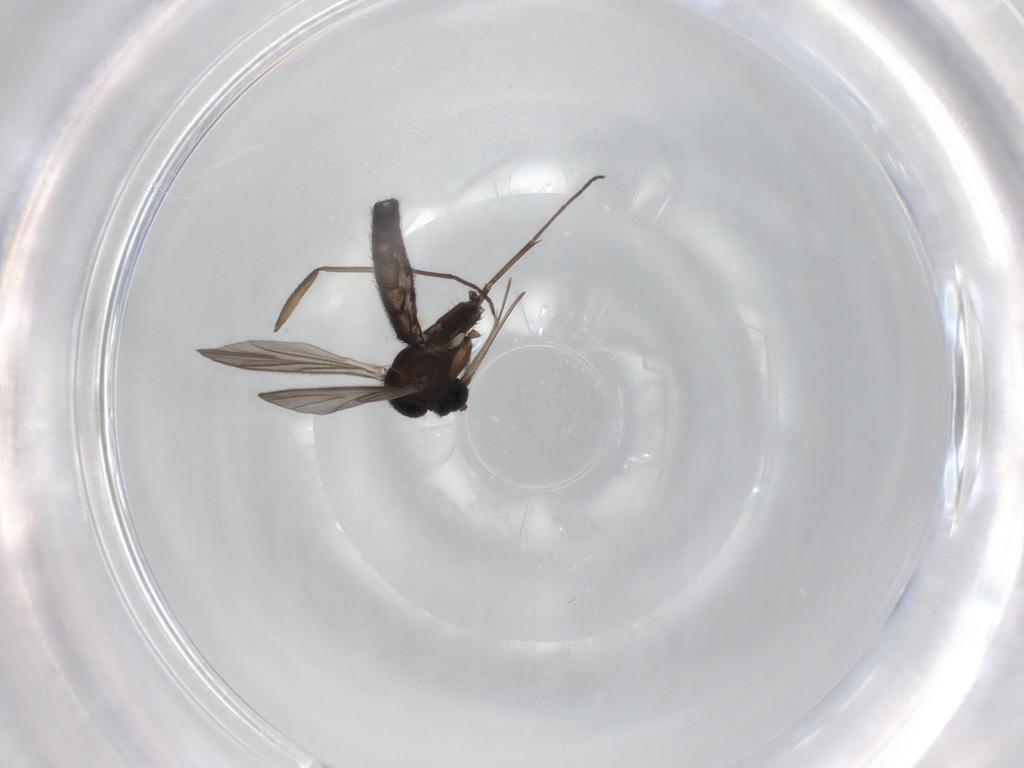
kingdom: Animalia
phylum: Arthropoda
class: Insecta
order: Diptera
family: Keroplatidae
